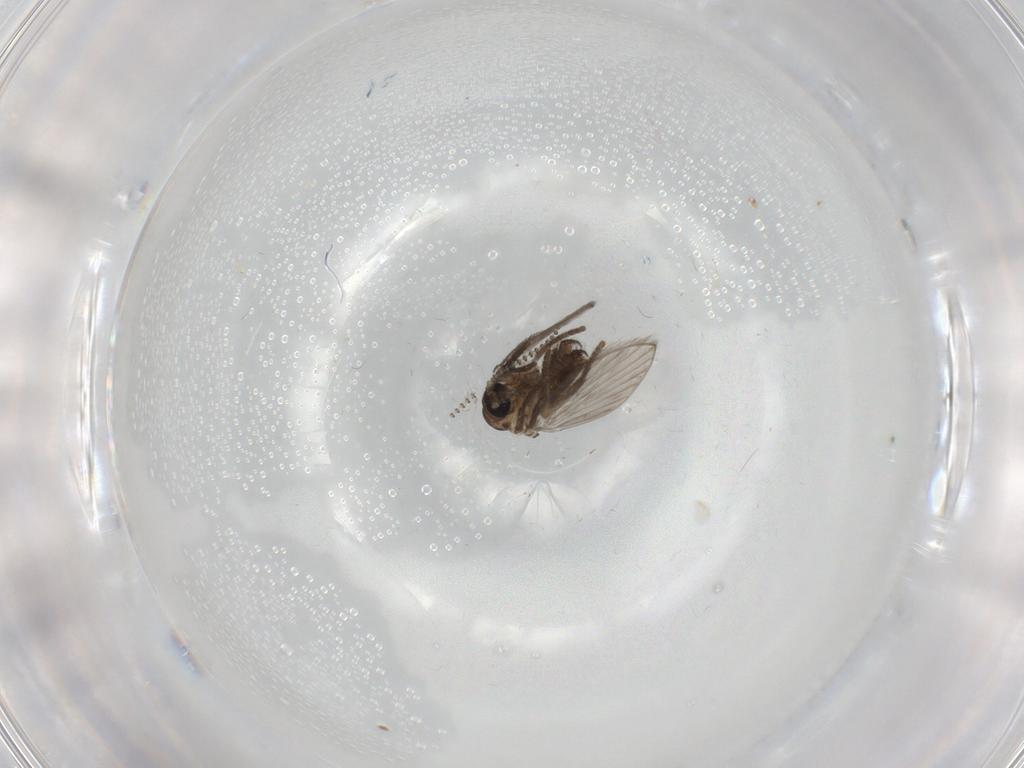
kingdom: Animalia
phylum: Arthropoda
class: Insecta
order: Diptera
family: Psychodidae
